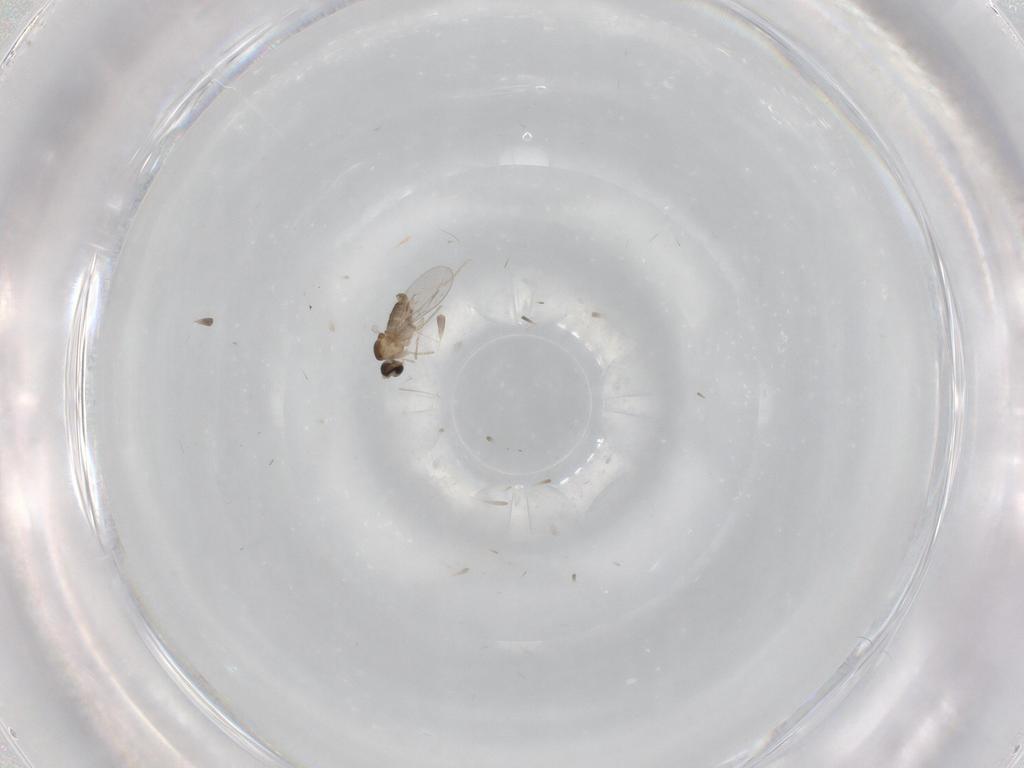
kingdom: Animalia
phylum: Arthropoda
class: Insecta
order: Diptera
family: Cecidomyiidae
